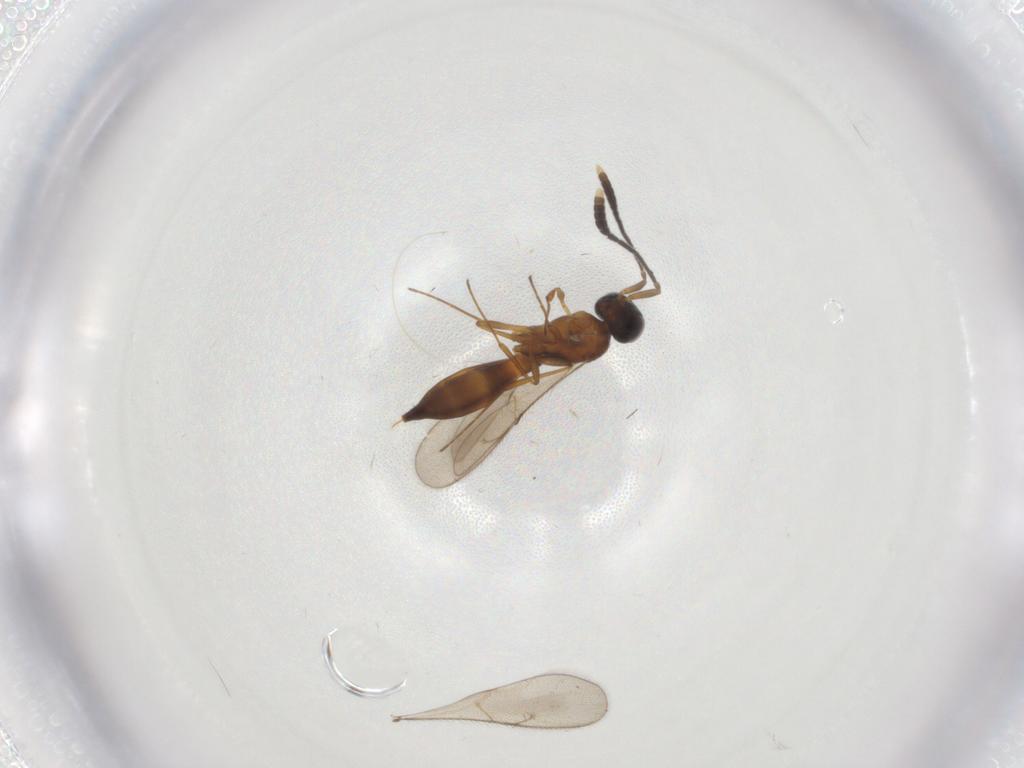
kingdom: Animalia
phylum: Arthropoda
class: Insecta
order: Hymenoptera
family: Scelionidae
